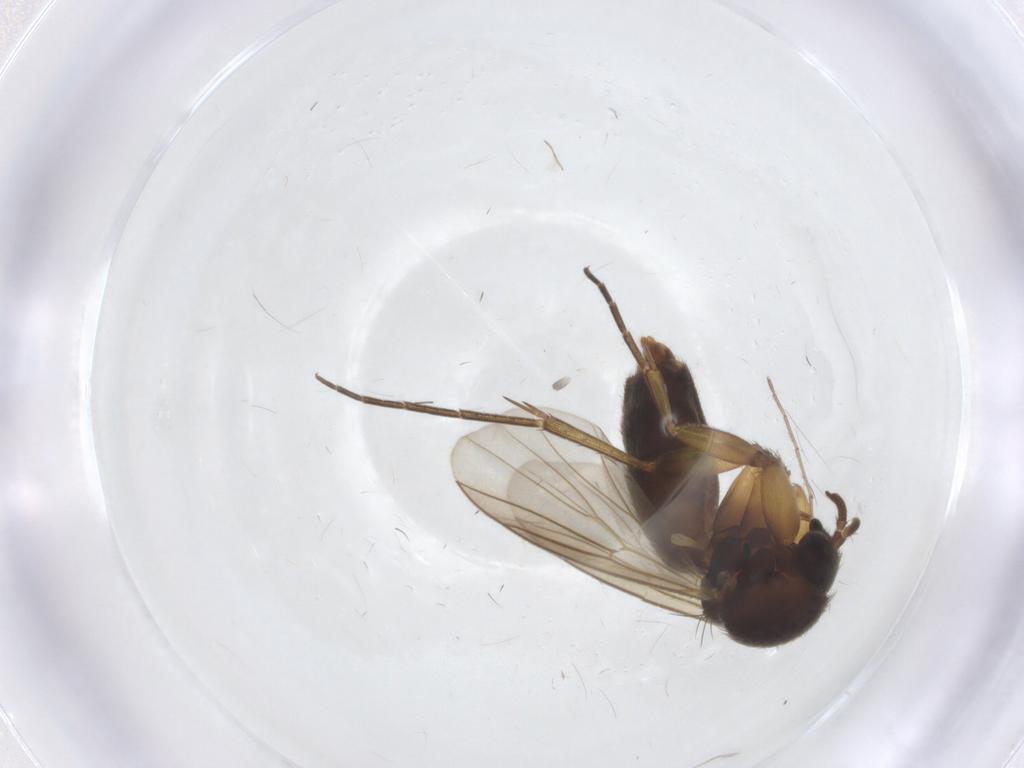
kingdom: Animalia
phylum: Arthropoda
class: Insecta
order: Diptera
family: Mycetophilidae
